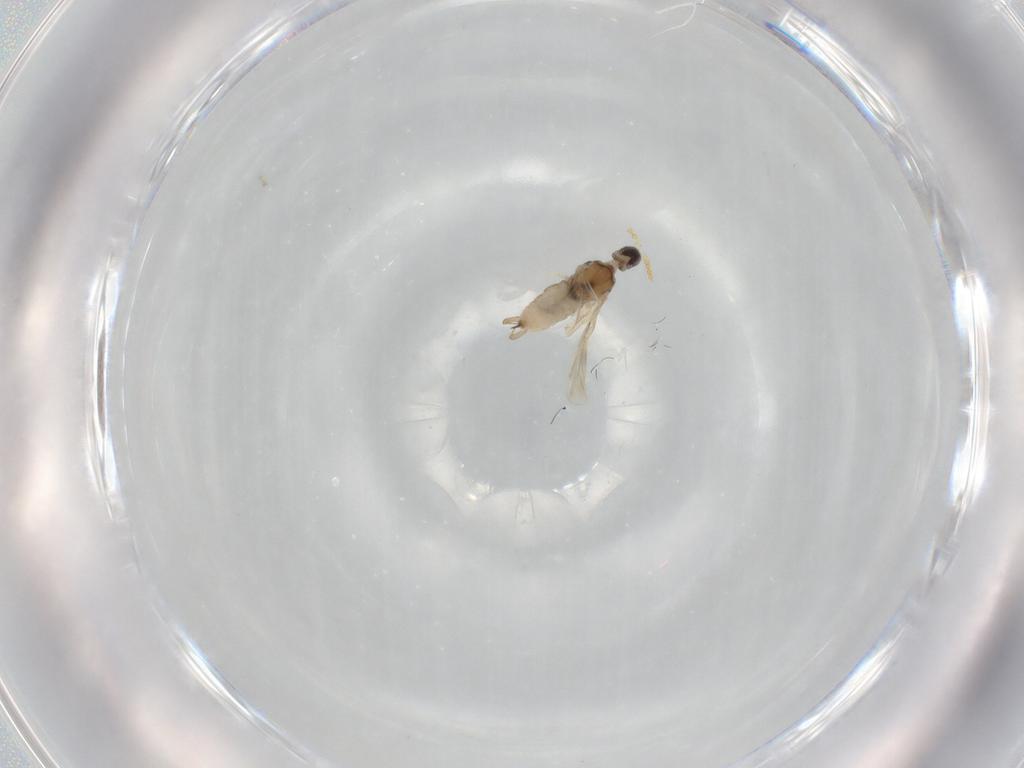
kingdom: Animalia
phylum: Arthropoda
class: Insecta
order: Diptera
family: Cecidomyiidae
